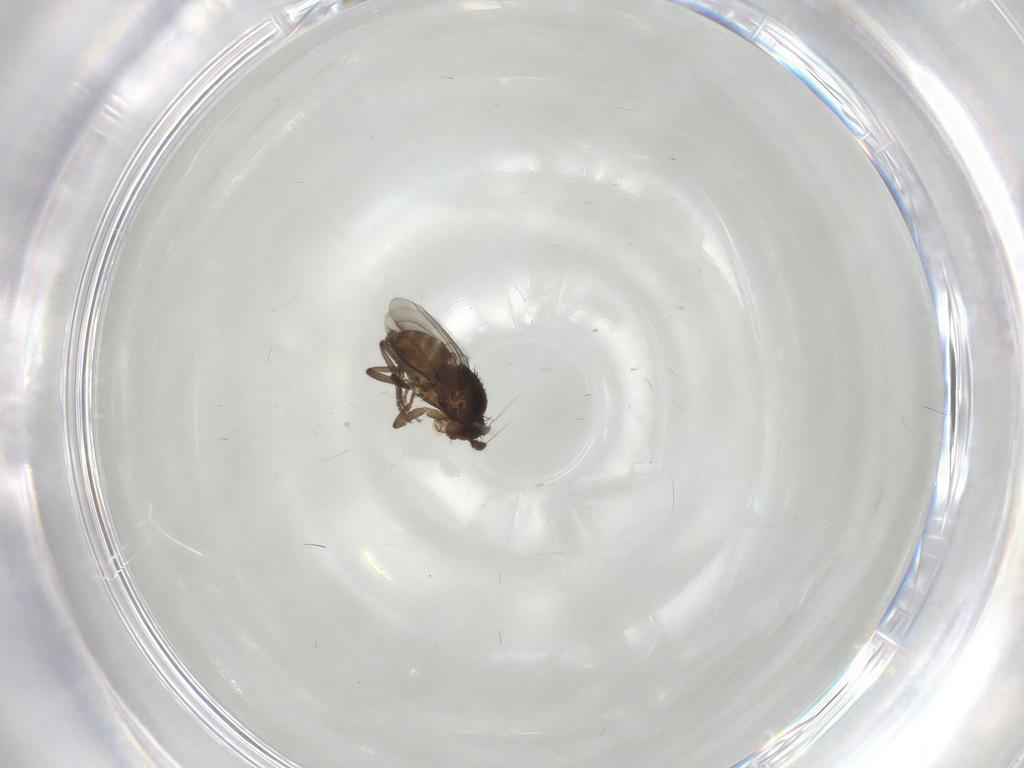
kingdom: Animalia
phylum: Arthropoda
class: Insecta
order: Diptera
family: Sphaeroceridae
